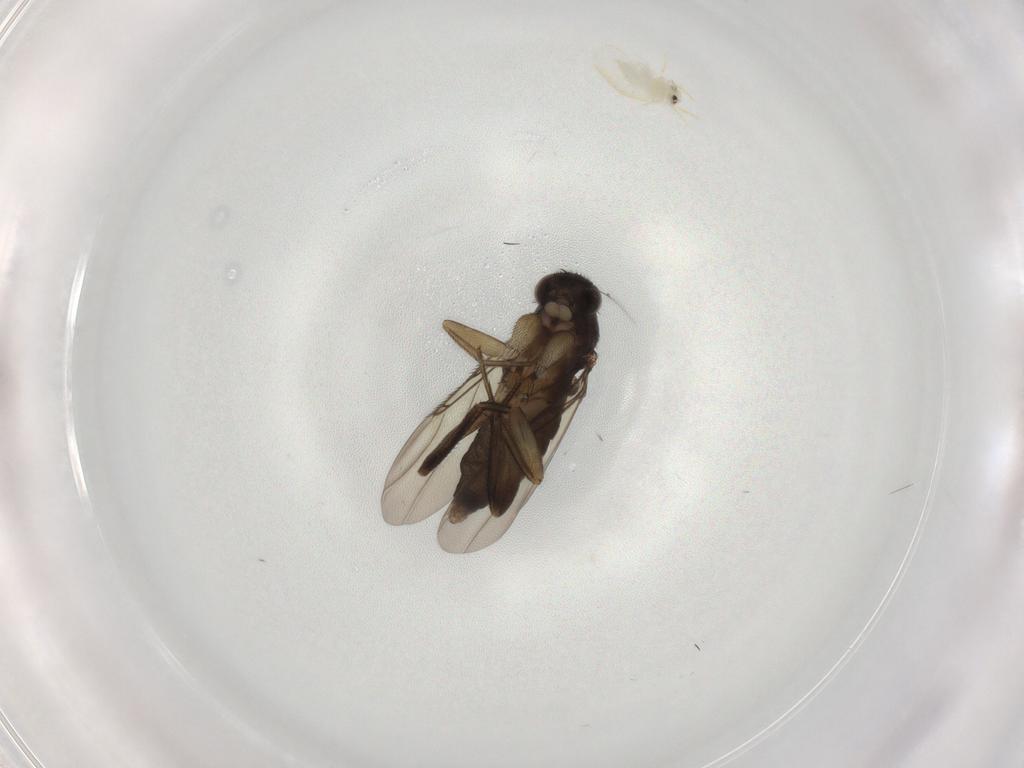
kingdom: Animalia
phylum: Arthropoda
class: Insecta
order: Diptera
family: Phoridae
